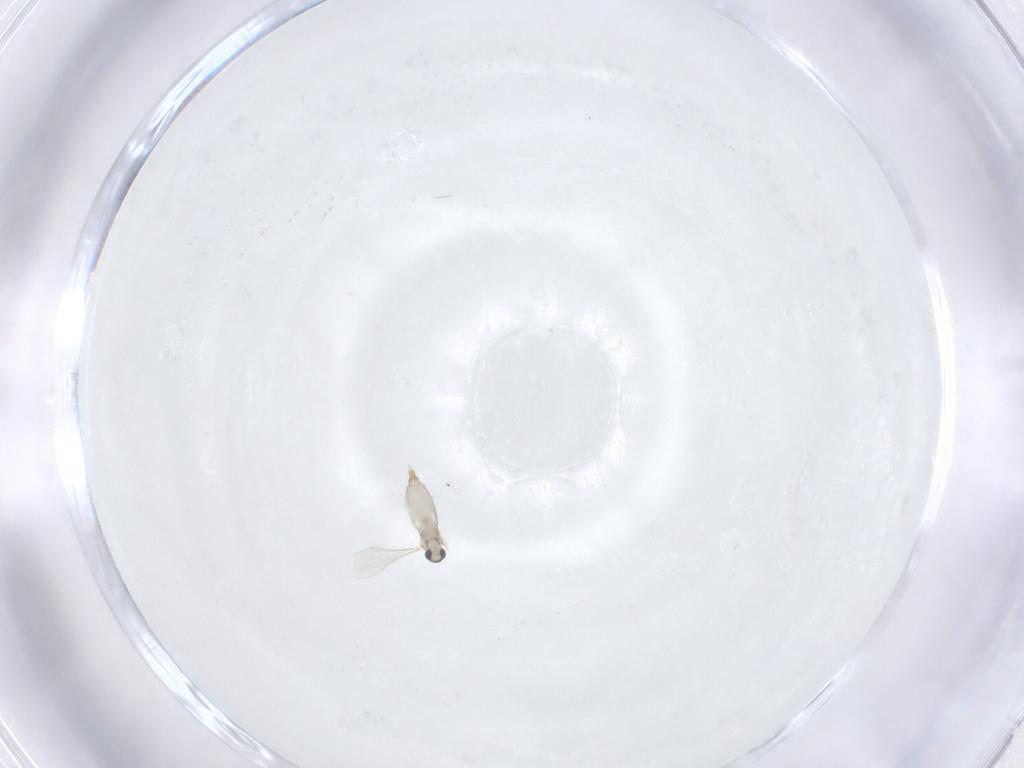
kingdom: Animalia
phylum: Arthropoda
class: Insecta
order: Diptera
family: Cecidomyiidae
